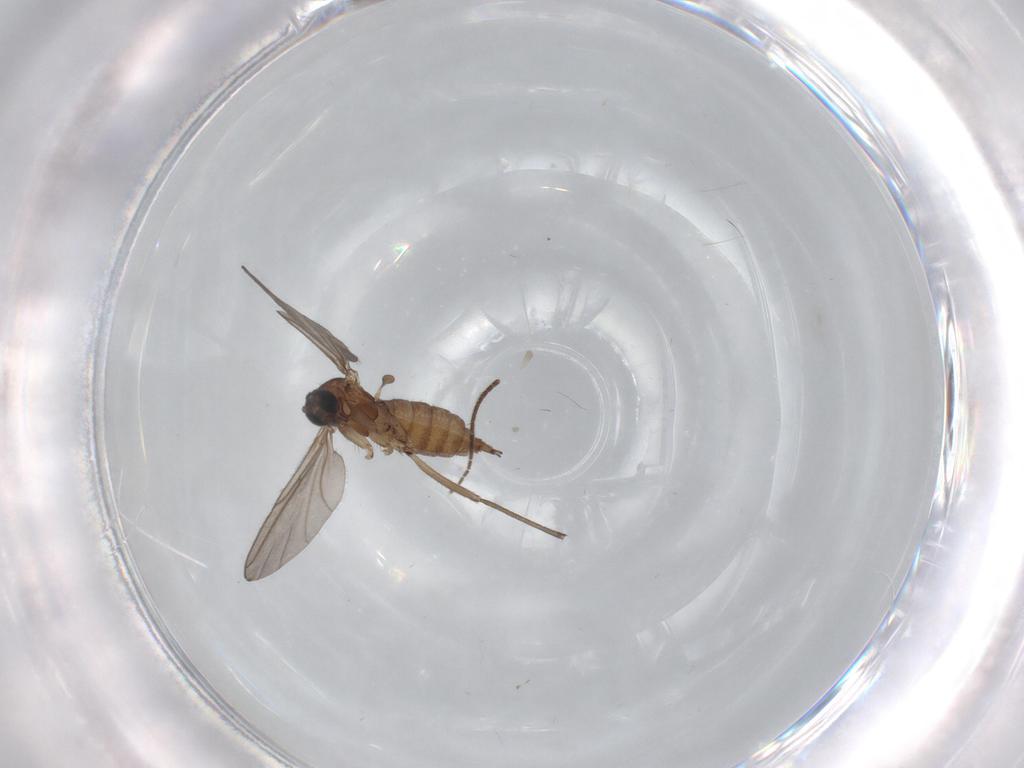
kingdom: Animalia
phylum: Arthropoda
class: Insecta
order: Diptera
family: Sciaridae
